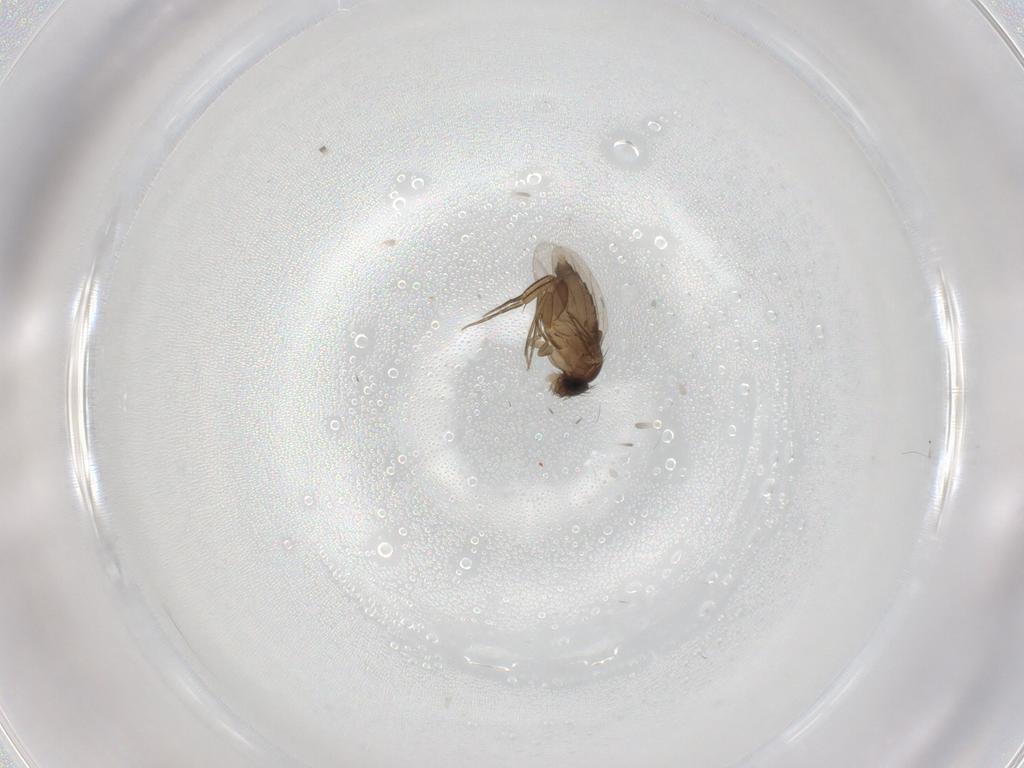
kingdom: Animalia
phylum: Arthropoda
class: Insecta
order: Diptera
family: Phoridae
